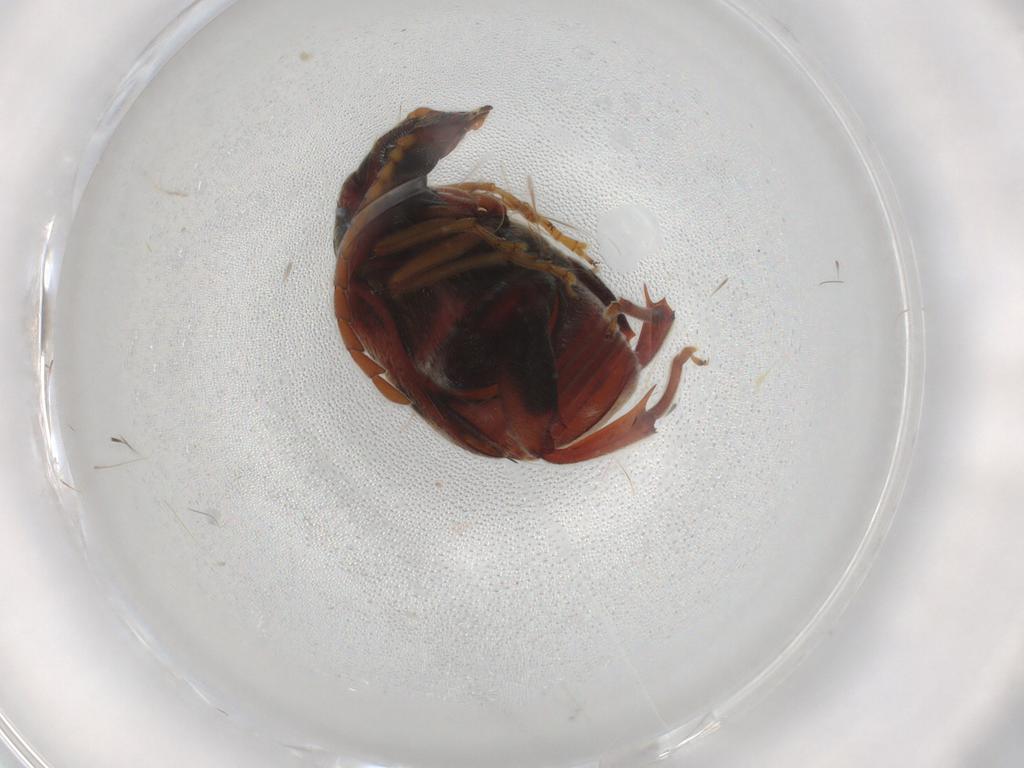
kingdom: Animalia
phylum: Arthropoda
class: Insecta
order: Coleoptera
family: Chrysomelidae
